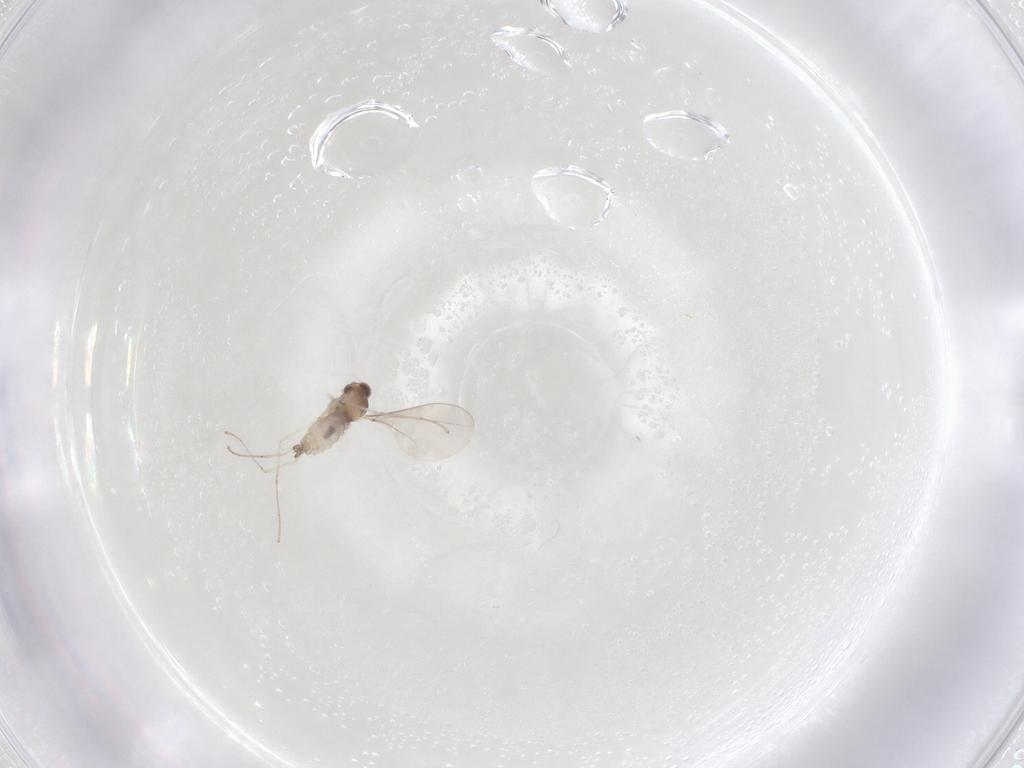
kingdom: Animalia
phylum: Arthropoda
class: Insecta
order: Diptera
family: Cecidomyiidae
